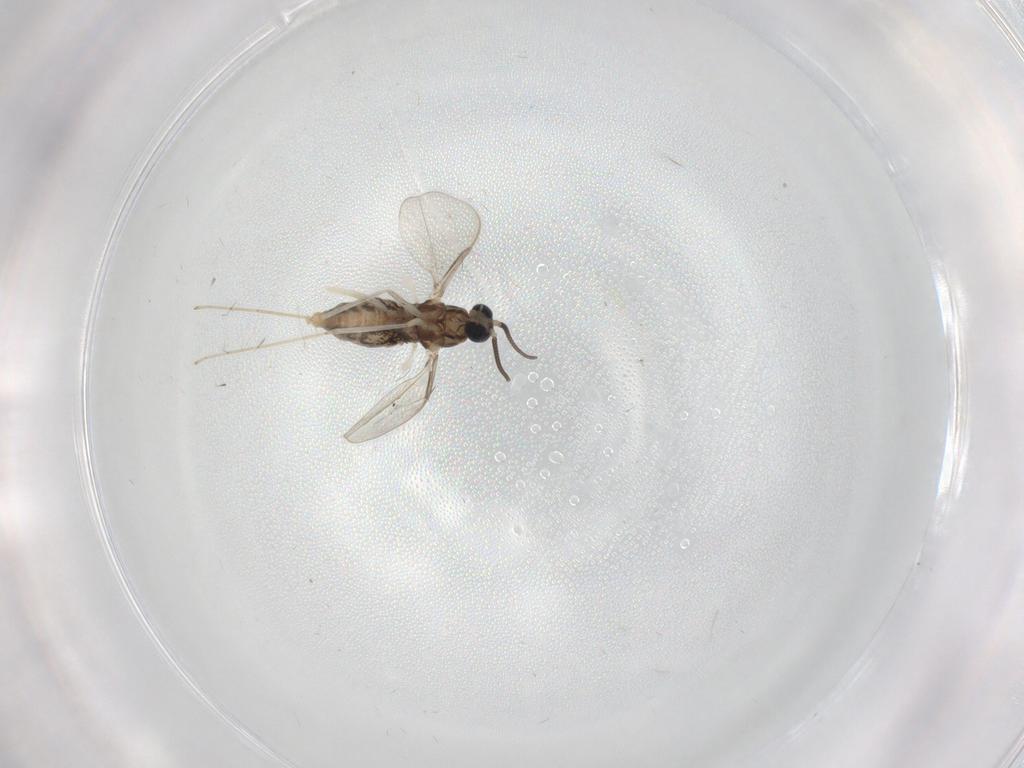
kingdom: Animalia
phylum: Arthropoda
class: Insecta
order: Diptera
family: Cecidomyiidae
